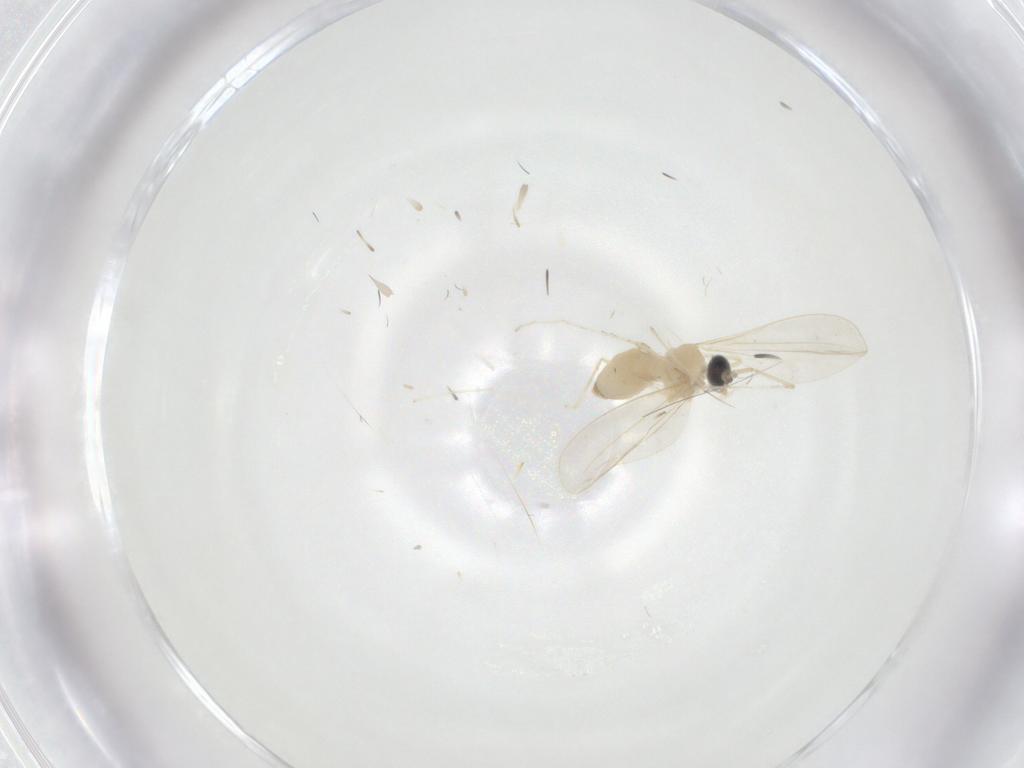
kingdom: Animalia
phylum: Arthropoda
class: Insecta
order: Diptera
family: Cecidomyiidae
